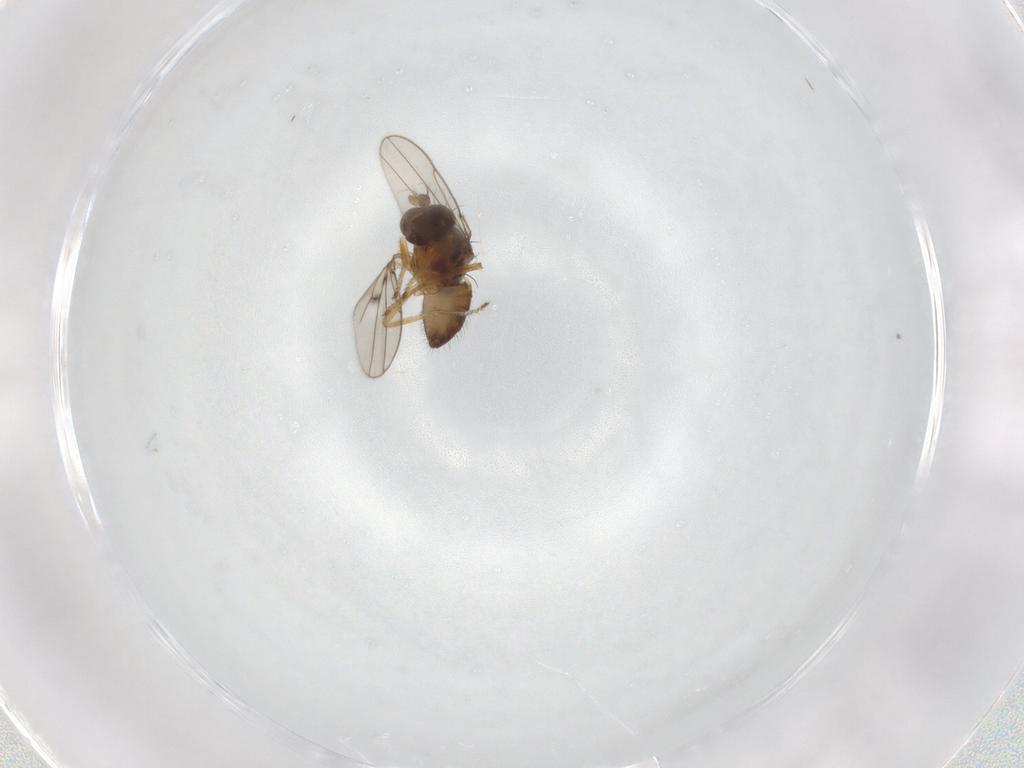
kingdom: Animalia
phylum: Arthropoda
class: Insecta
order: Diptera
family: Ephydridae
